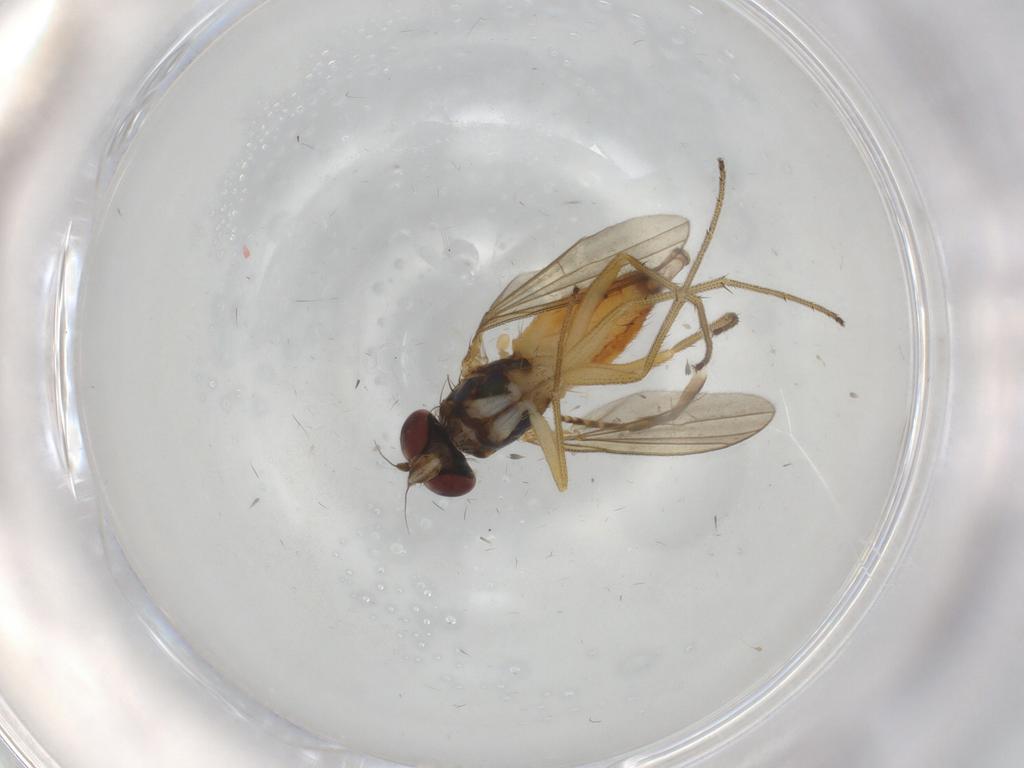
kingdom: Animalia
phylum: Arthropoda
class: Insecta
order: Diptera
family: Dolichopodidae
